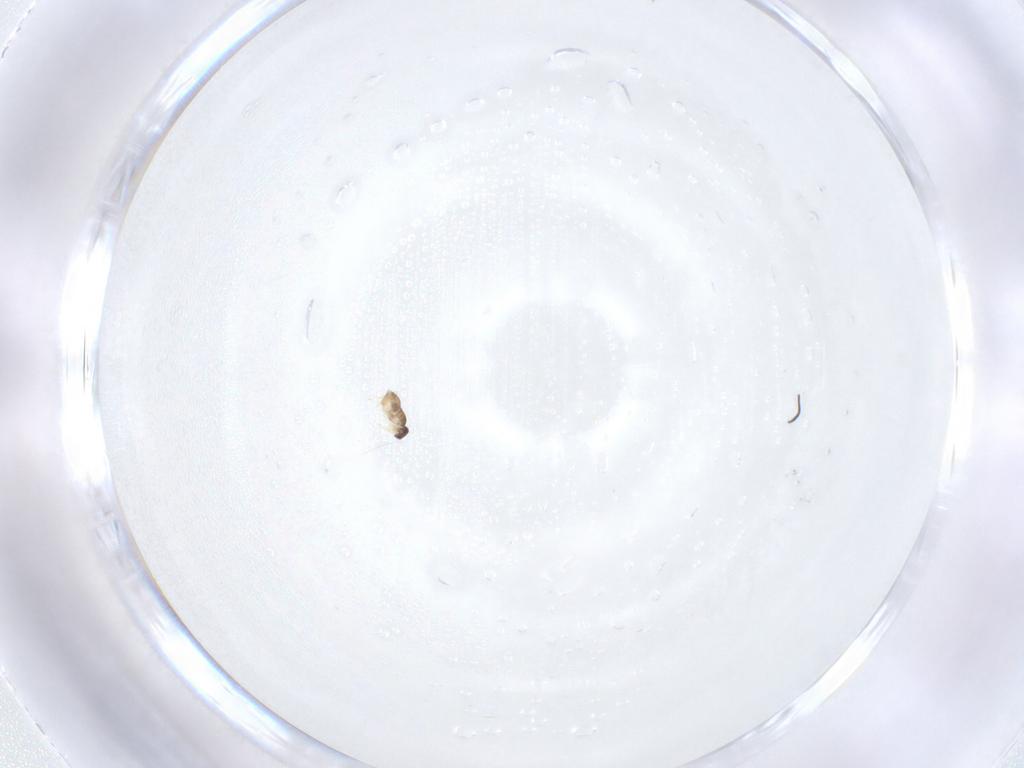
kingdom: Animalia
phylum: Arthropoda
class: Insecta
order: Hymenoptera
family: Mymaridae
